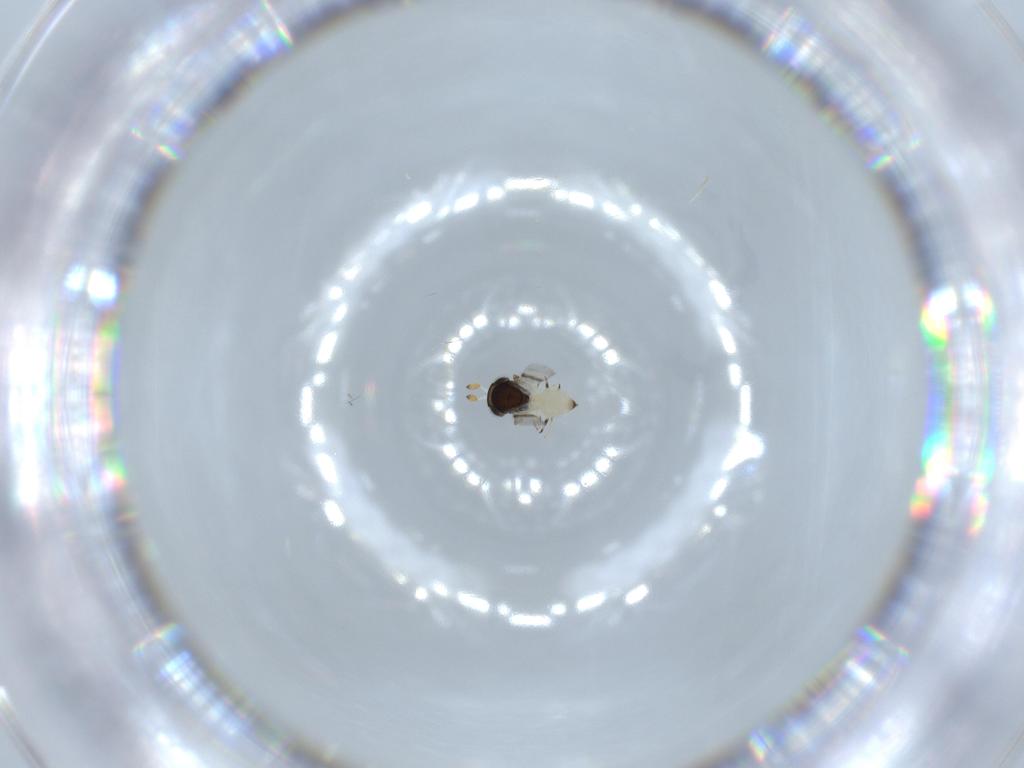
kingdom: Animalia
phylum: Arthropoda
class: Insecta
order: Hymenoptera
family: Scelionidae
